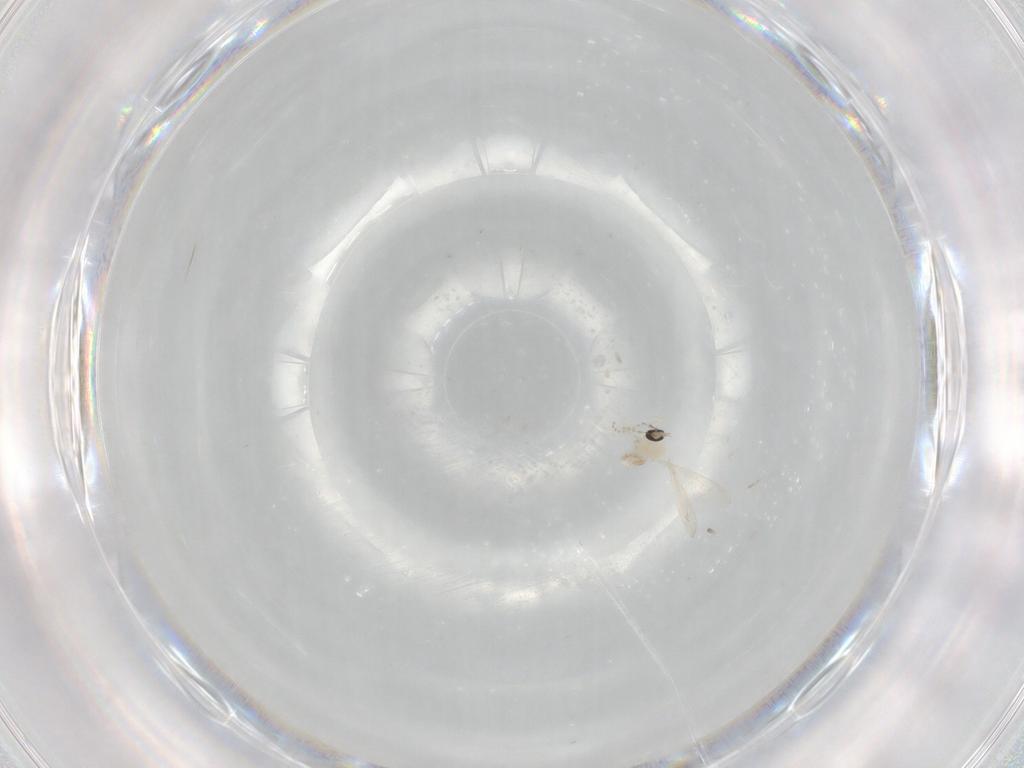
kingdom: Animalia
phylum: Arthropoda
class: Insecta
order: Diptera
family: Cecidomyiidae
